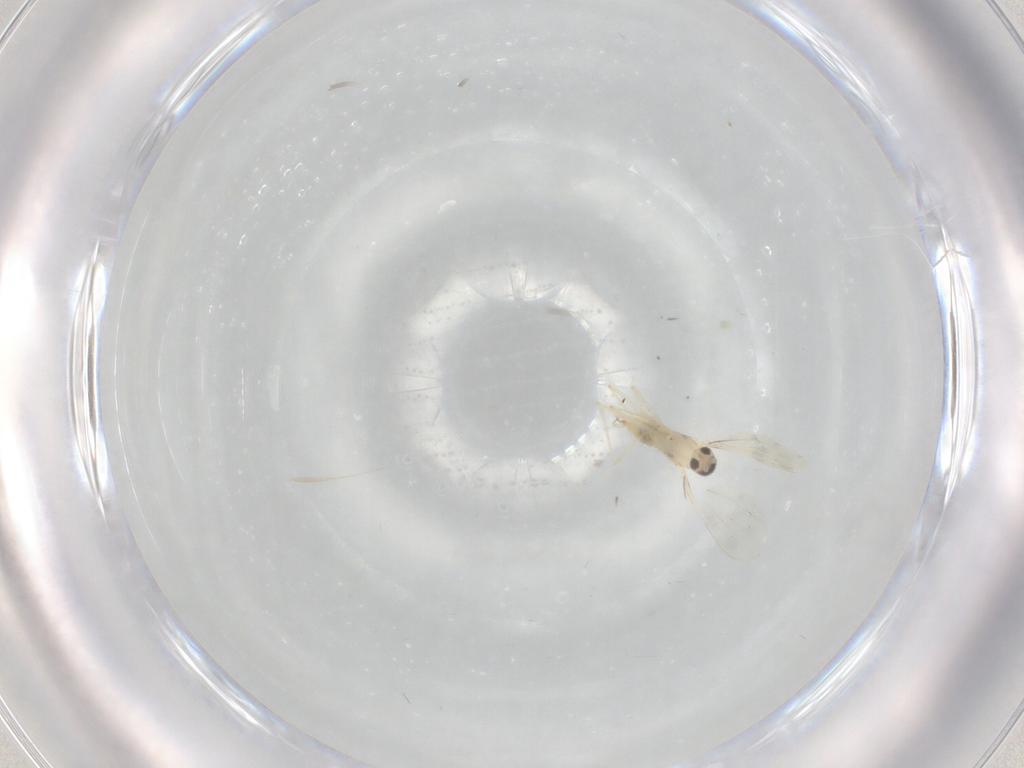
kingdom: Animalia
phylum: Arthropoda
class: Insecta
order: Diptera
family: Cecidomyiidae
